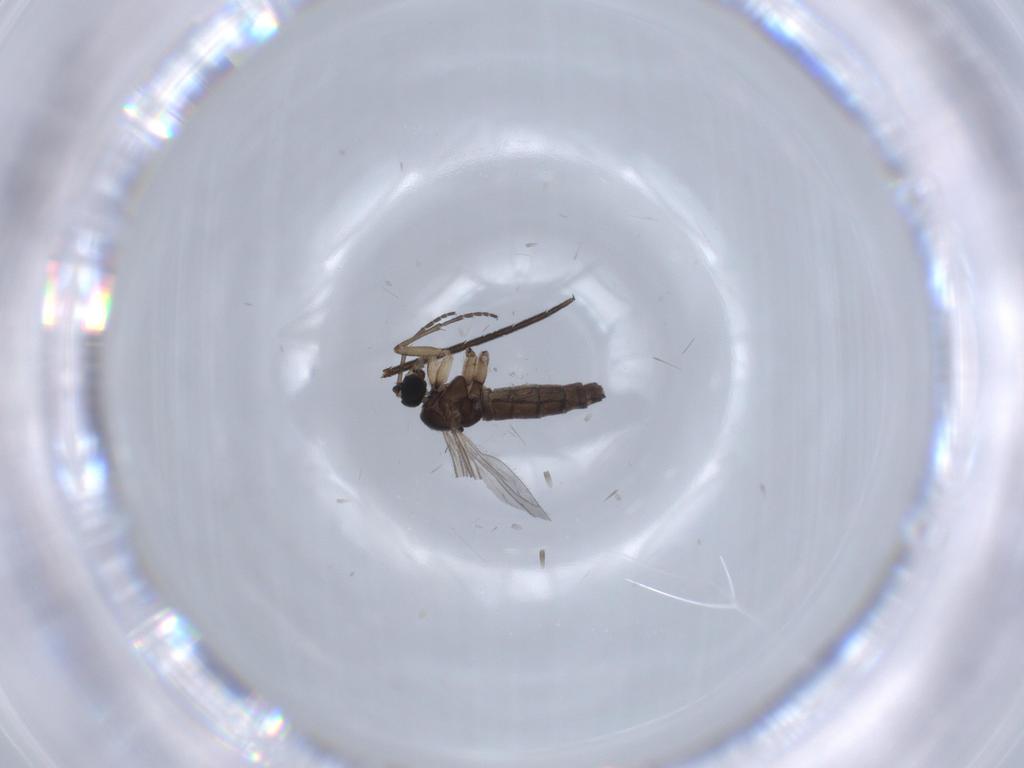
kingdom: Animalia
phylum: Arthropoda
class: Insecta
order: Diptera
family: Sciaridae
